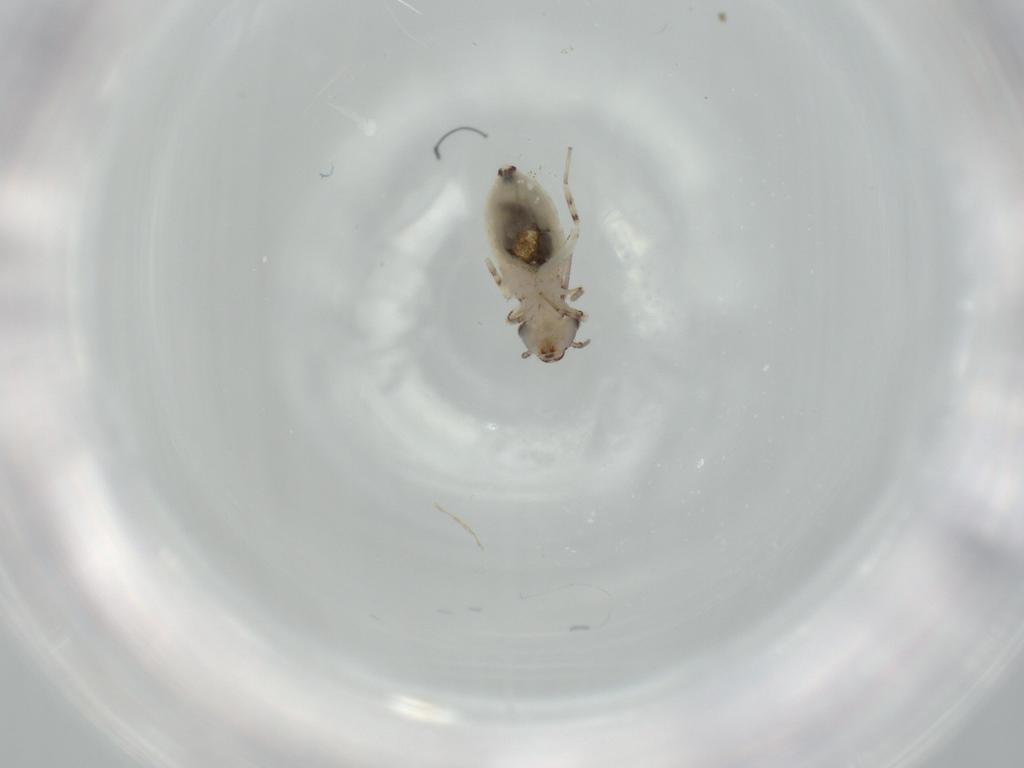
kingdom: Animalia
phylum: Arthropoda
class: Insecta
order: Psocodea
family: Lepidopsocidae
